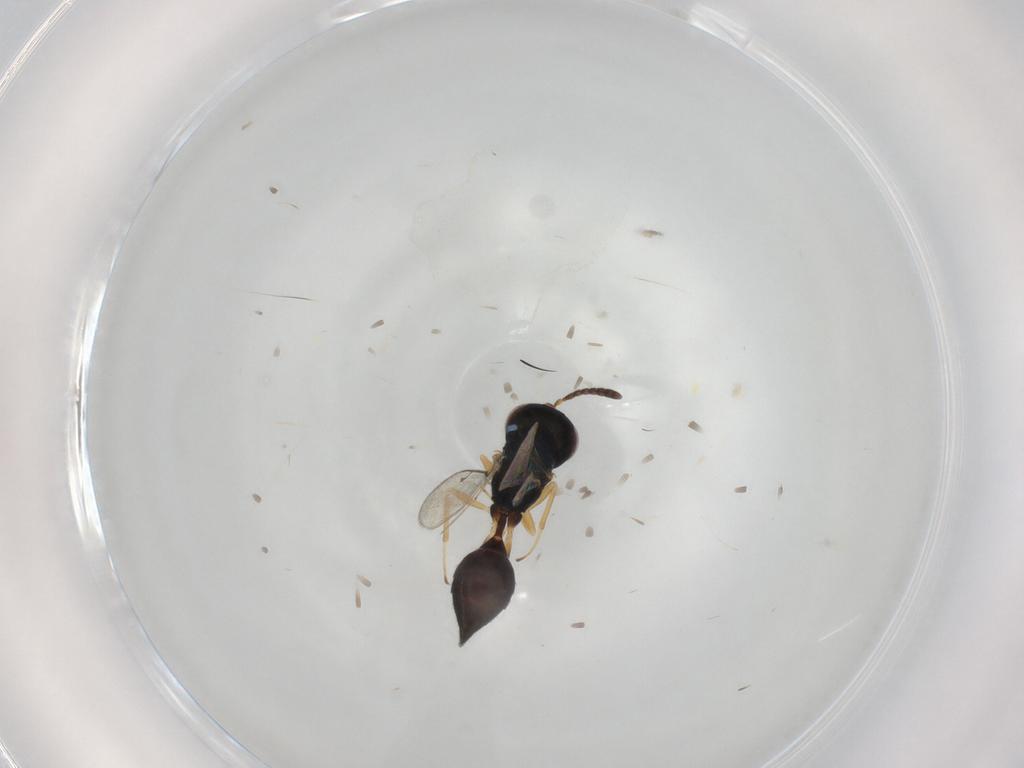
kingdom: Animalia
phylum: Arthropoda
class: Insecta
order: Hymenoptera
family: Pteromalidae
